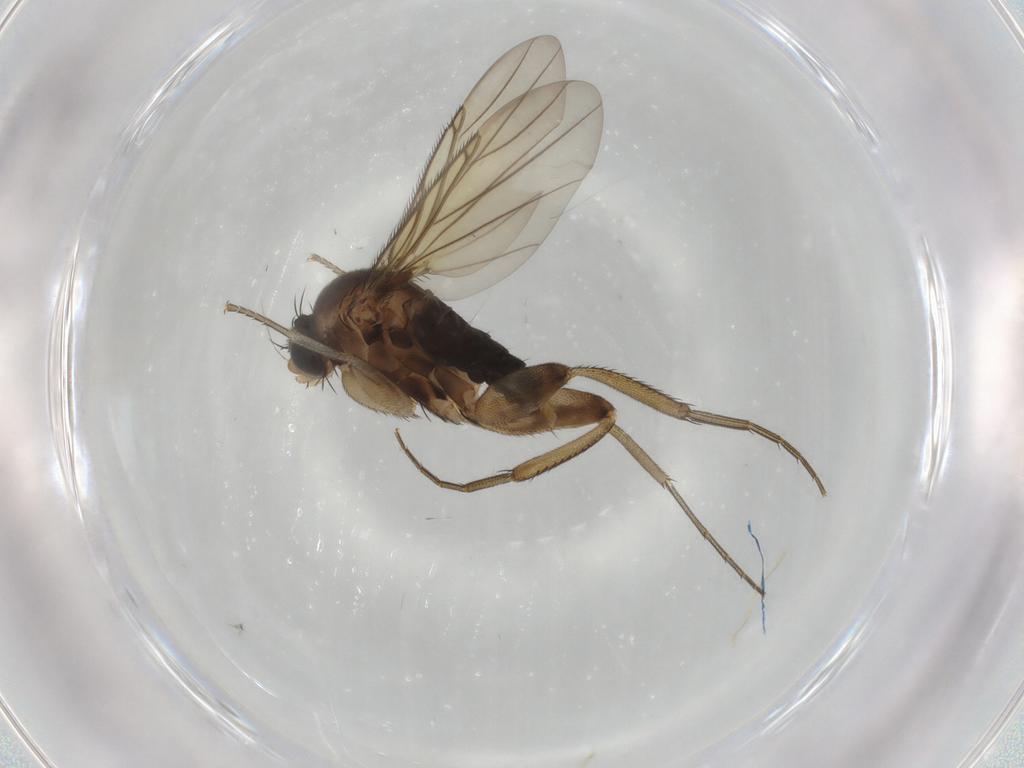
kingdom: Animalia
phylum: Arthropoda
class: Insecta
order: Diptera
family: Phoridae
